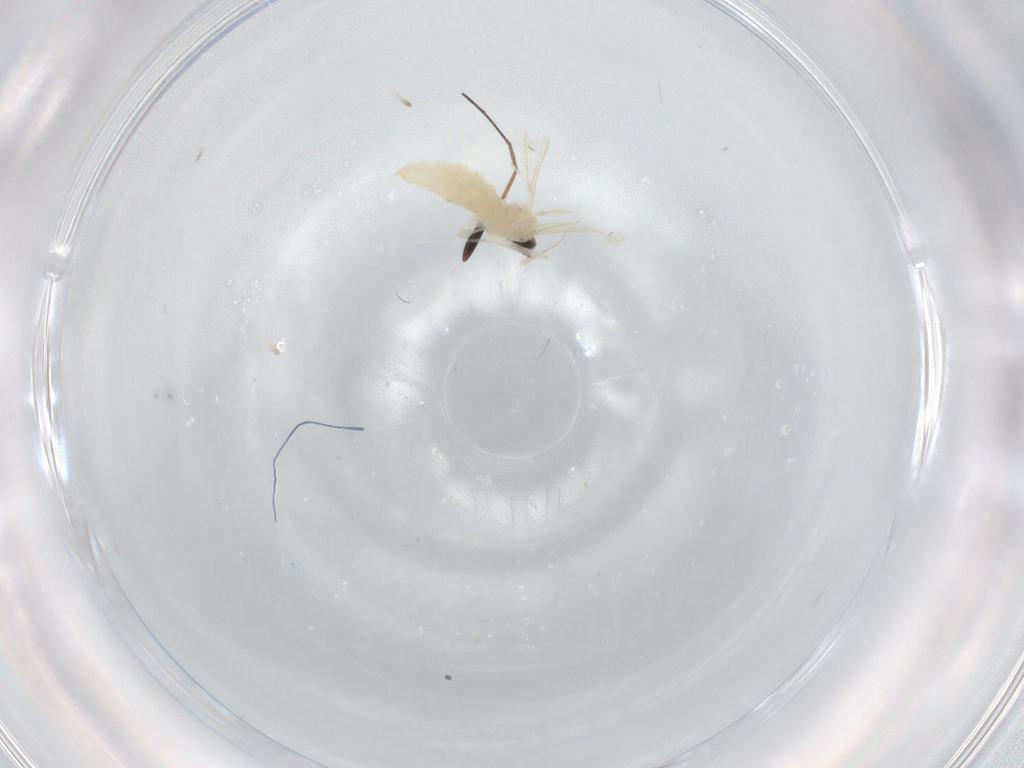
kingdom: Animalia
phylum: Arthropoda
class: Insecta
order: Diptera
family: Cecidomyiidae
